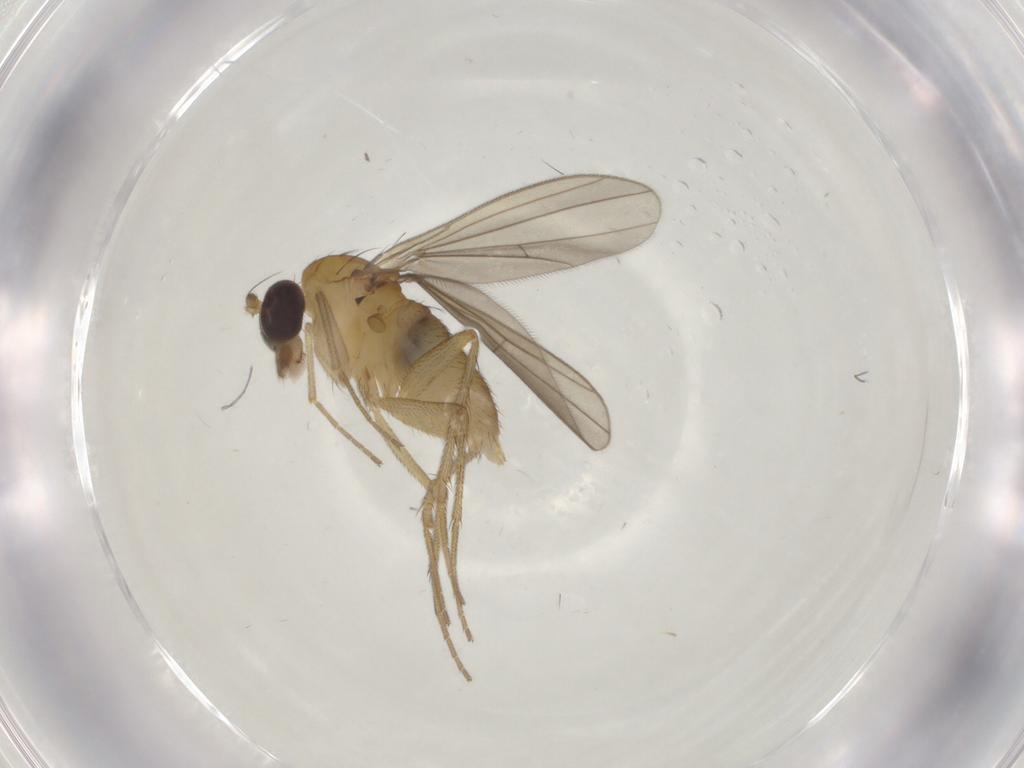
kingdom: Animalia
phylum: Arthropoda
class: Insecta
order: Diptera
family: Dolichopodidae
